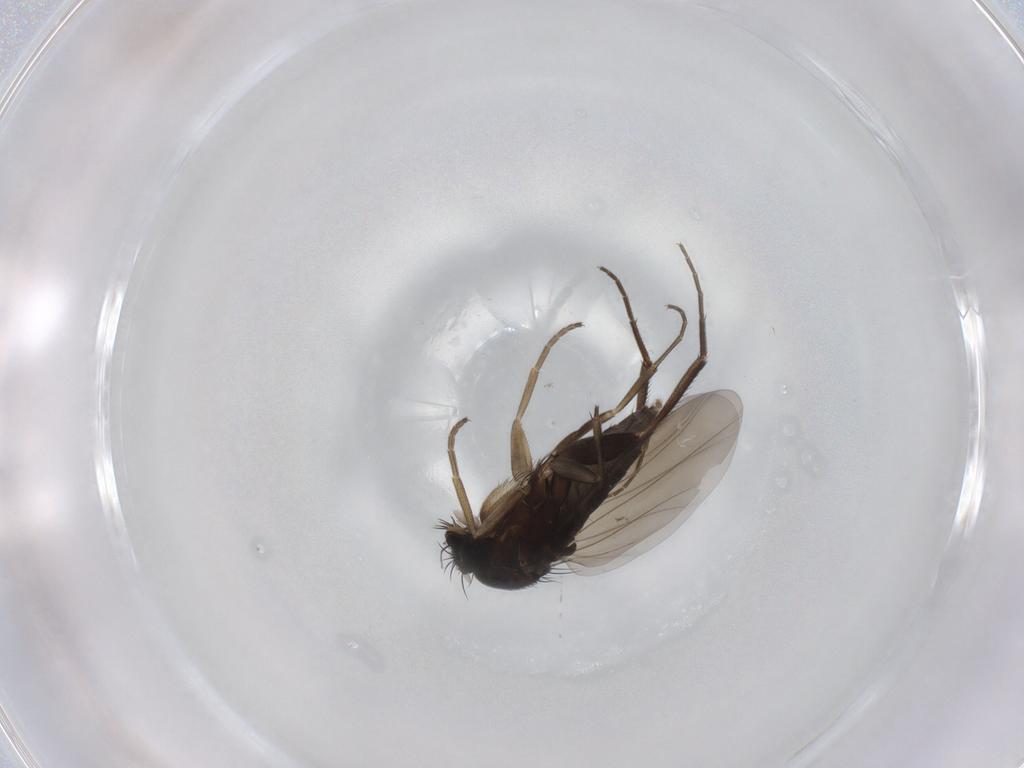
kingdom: Animalia
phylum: Arthropoda
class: Insecta
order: Diptera
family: Phoridae
